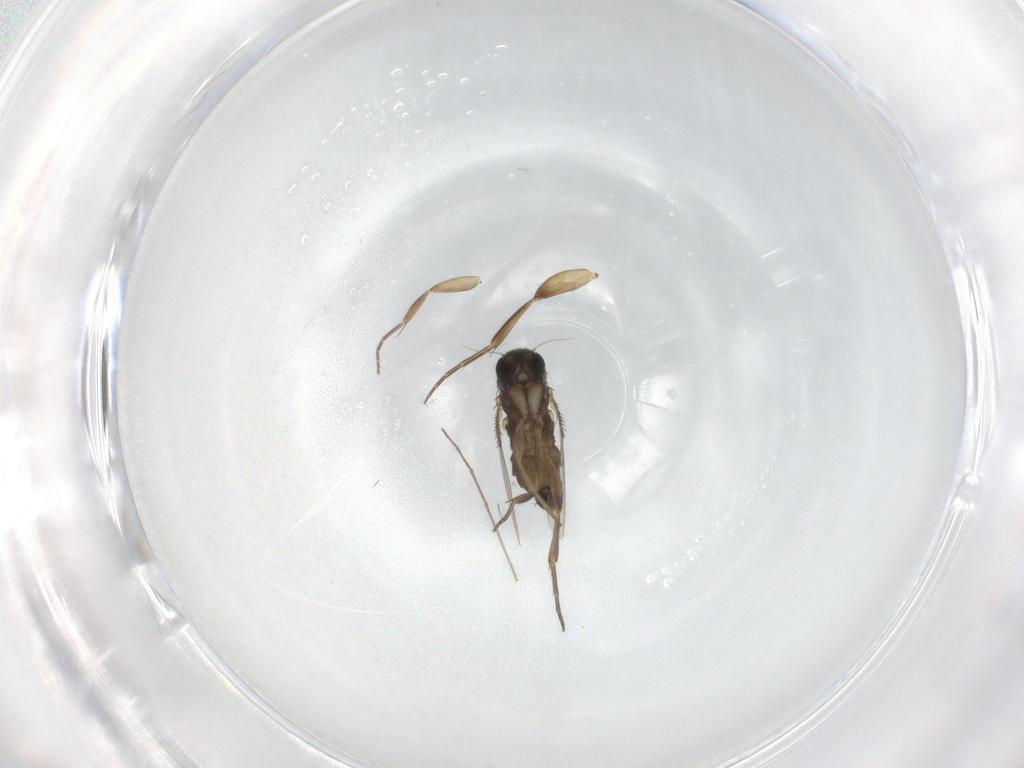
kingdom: Animalia
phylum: Arthropoda
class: Insecta
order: Diptera
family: Phoridae
